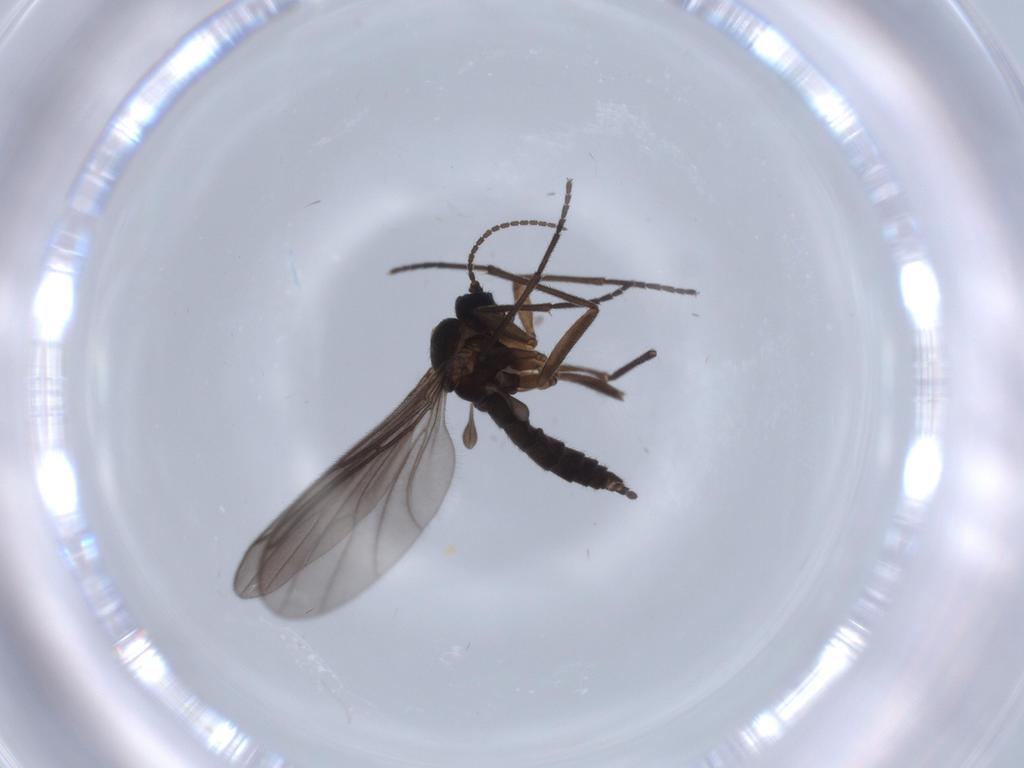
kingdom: Animalia
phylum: Arthropoda
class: Insecta
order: Diptera
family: Sciaridae
